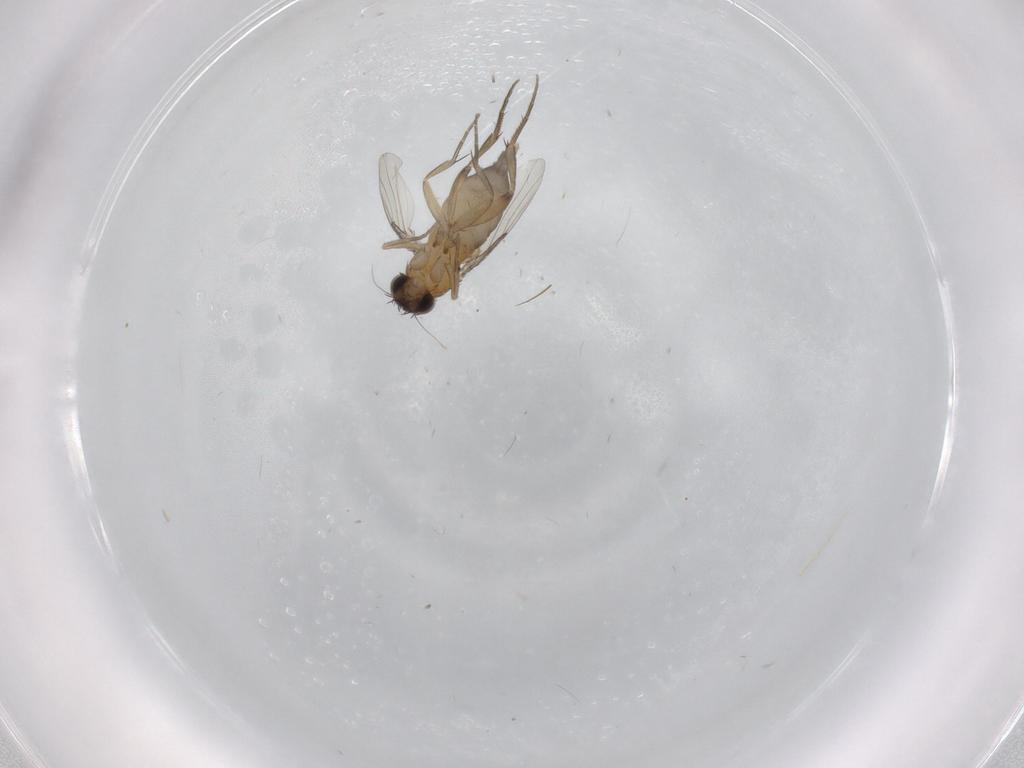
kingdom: Animalia
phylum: Arthropoda
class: Insecta
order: Diptera
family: Phoridae
